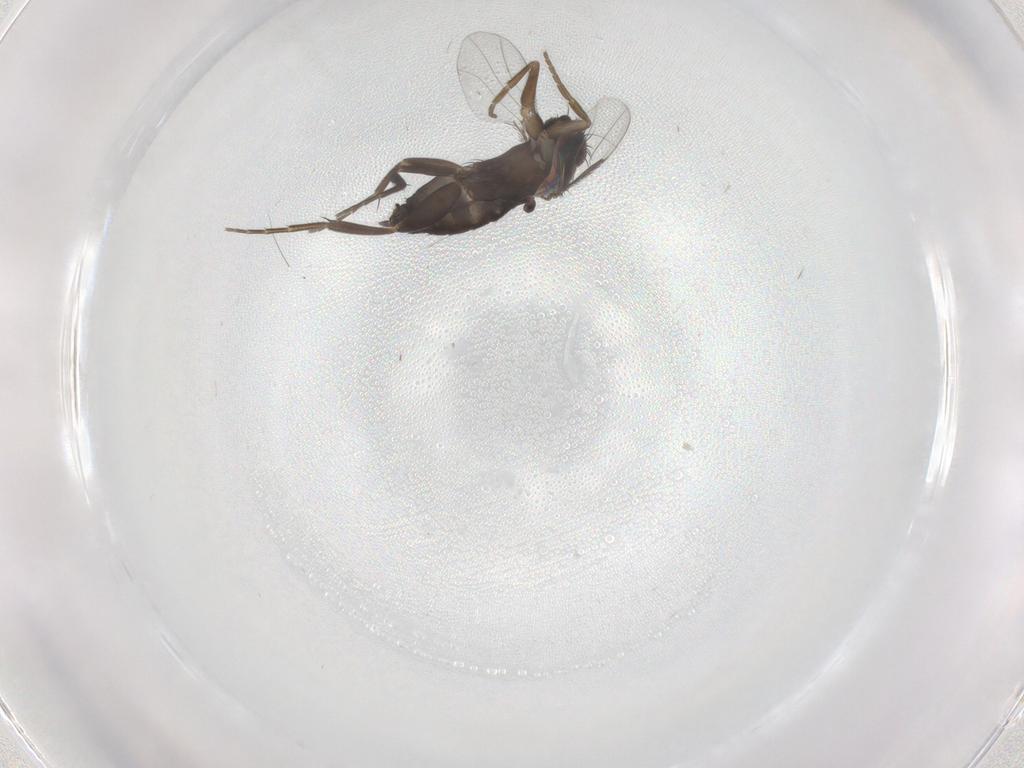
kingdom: Animalia
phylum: Arthropoda
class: Insecta
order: Diptera
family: Phoridae
